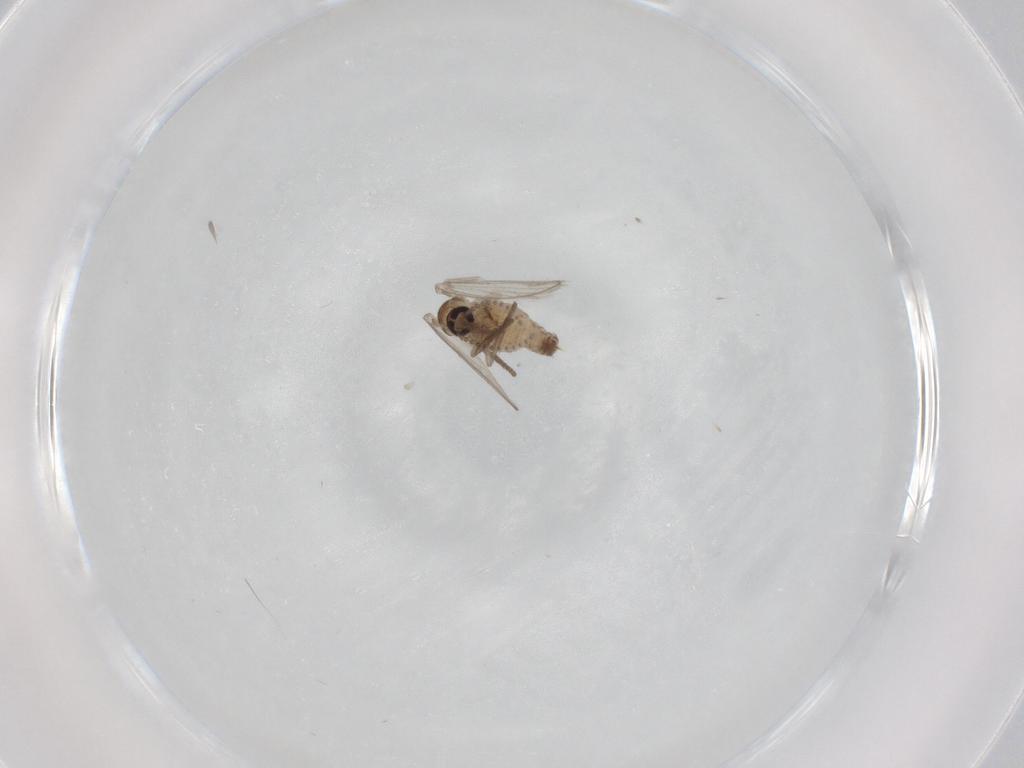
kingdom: Animalia
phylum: Arthropoda
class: Insecta
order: Diptera
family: Psychodidae
